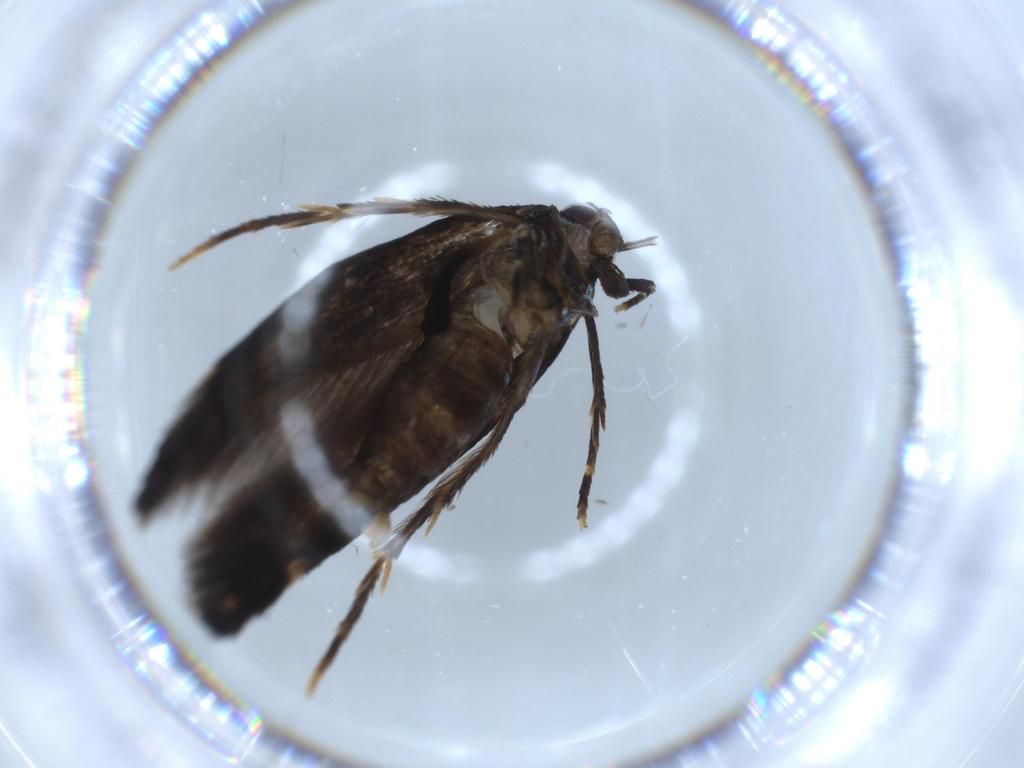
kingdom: Animalia
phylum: Arthropoda
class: Insecta
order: Lepidoptera
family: Cosmopterigidae
